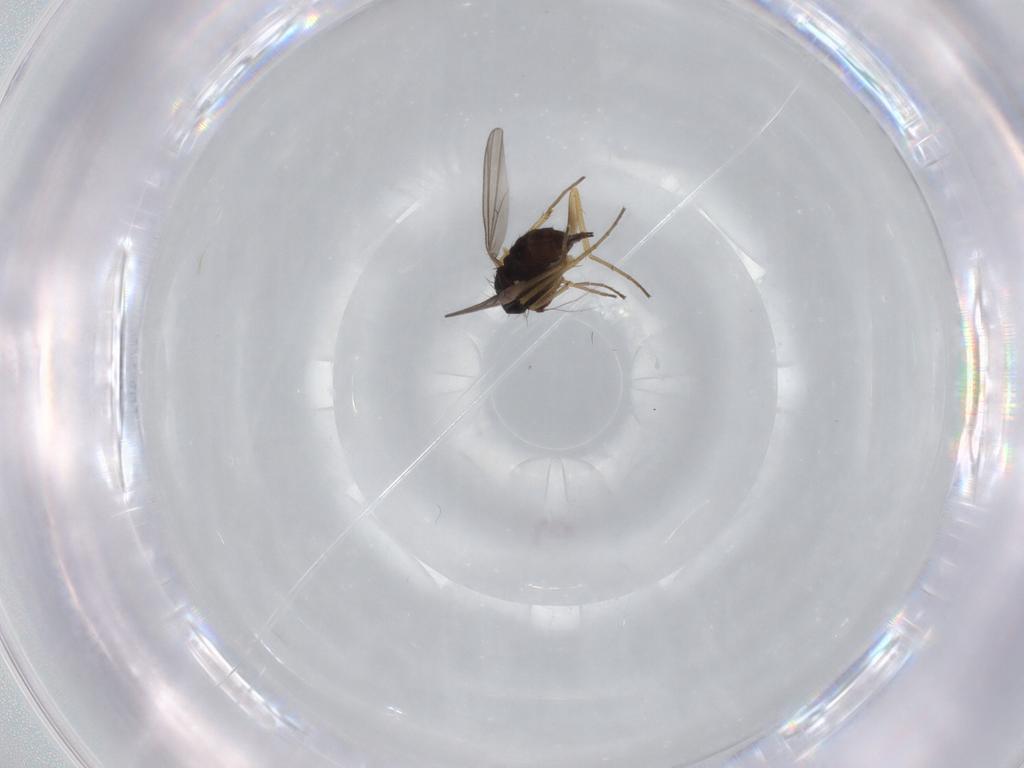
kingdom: Animalia
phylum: Arthropoda
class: Insecta
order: Diptera
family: Dolichopodidae
